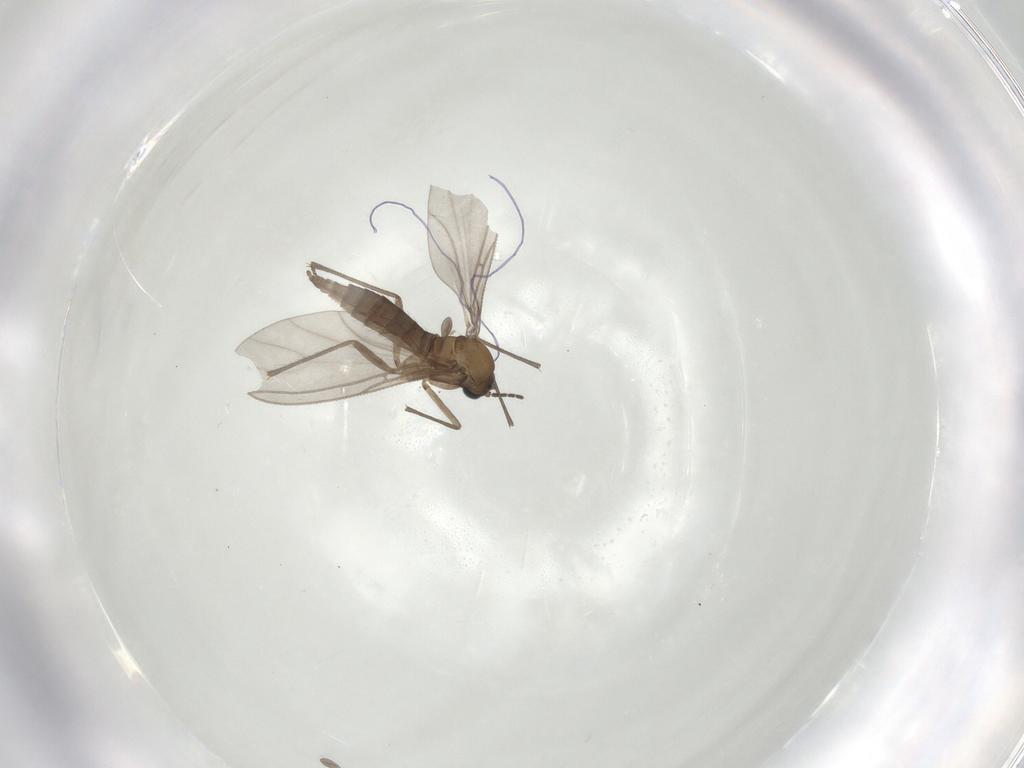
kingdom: Animalia
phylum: Arthropoda
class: Insecta
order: Diptera
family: Sciaridae
